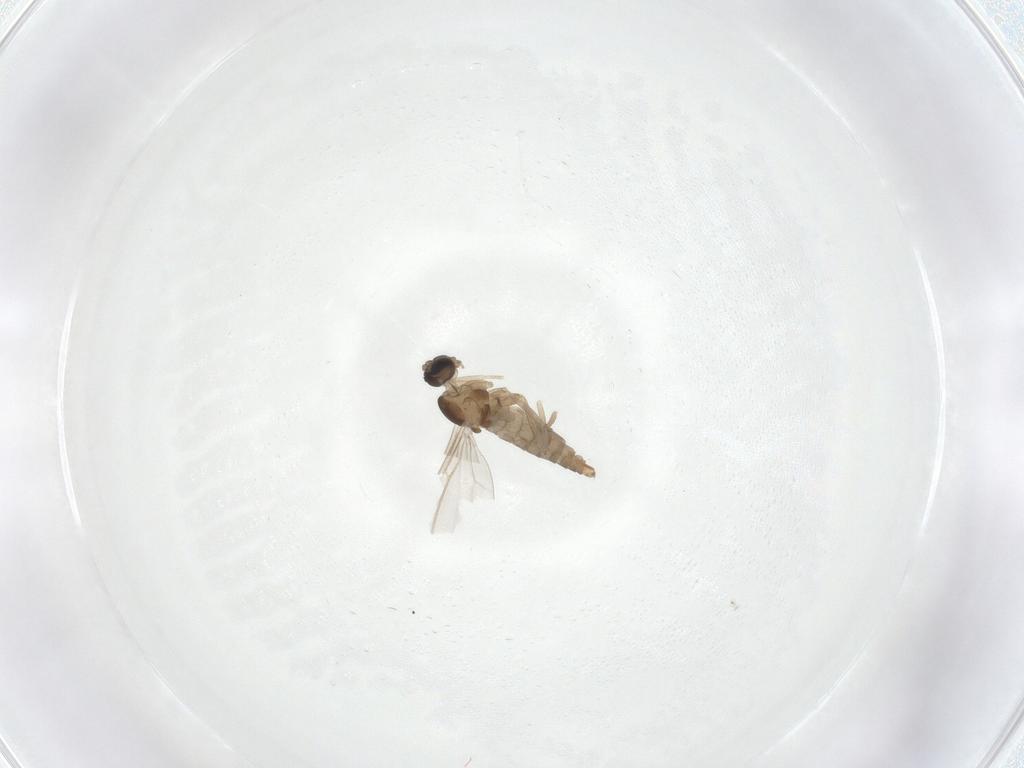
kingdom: Animalia
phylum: Arthropoda
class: Insecta
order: Diptera
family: Cecidomyiidae
